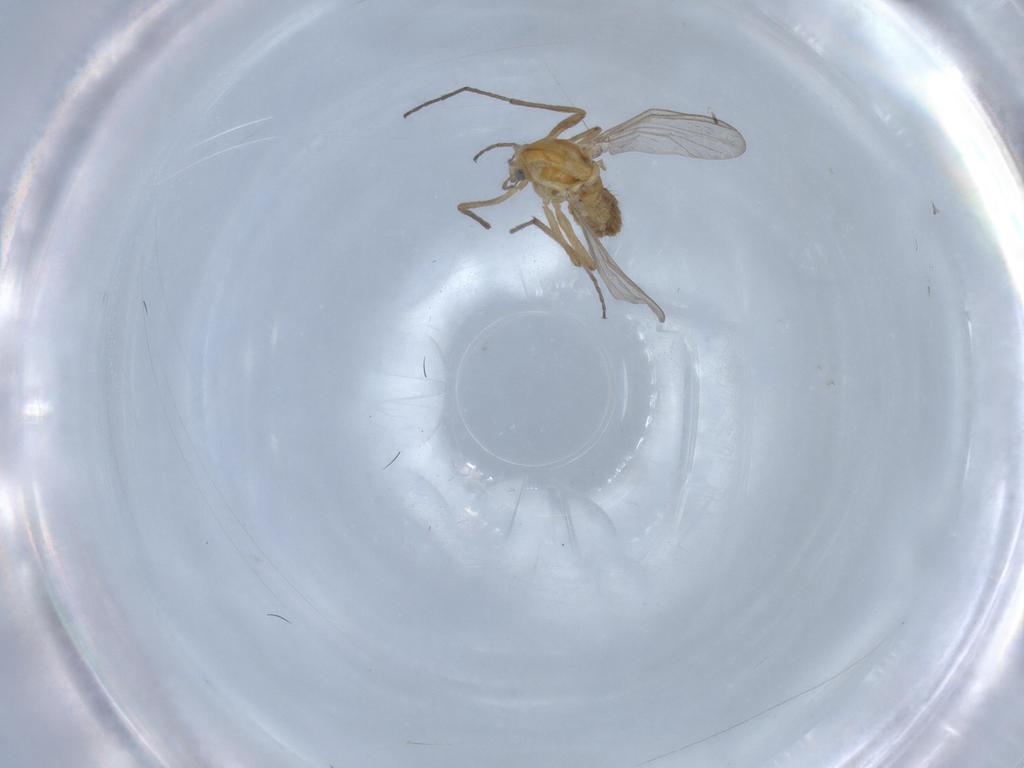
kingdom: Animalia
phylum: Arthropoda
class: Insecta
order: Diptera
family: Chironomidae
